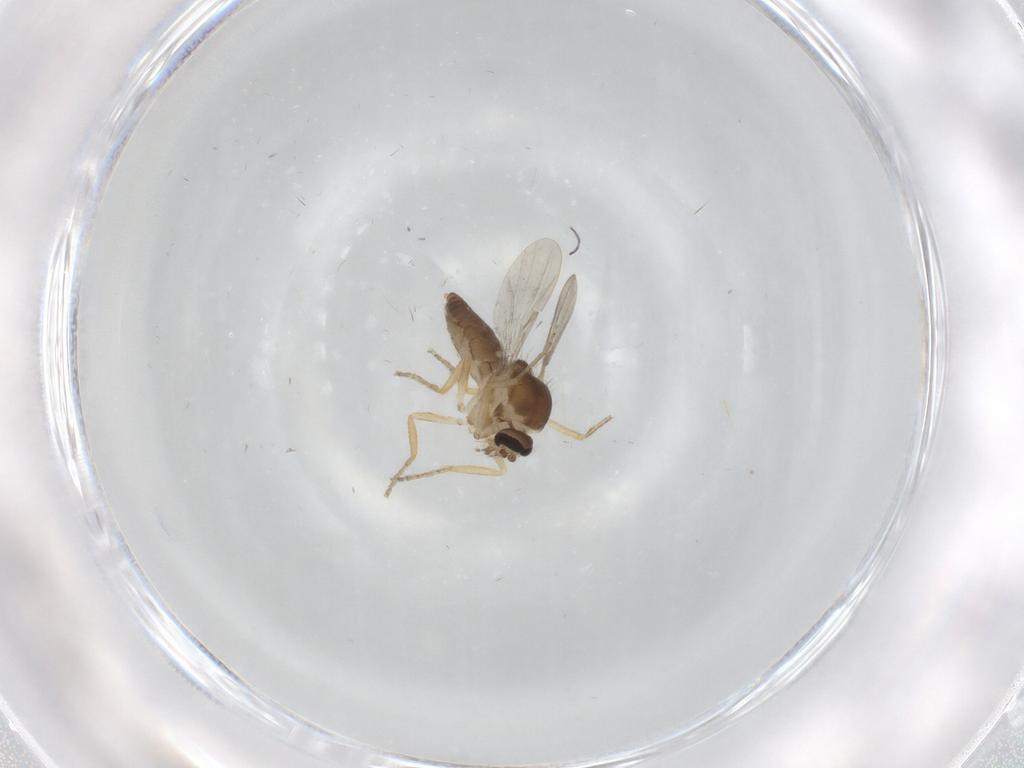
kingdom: Animalia
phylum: Arthropoda
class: Insecta
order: Diptera
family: Ceratopogonidae
